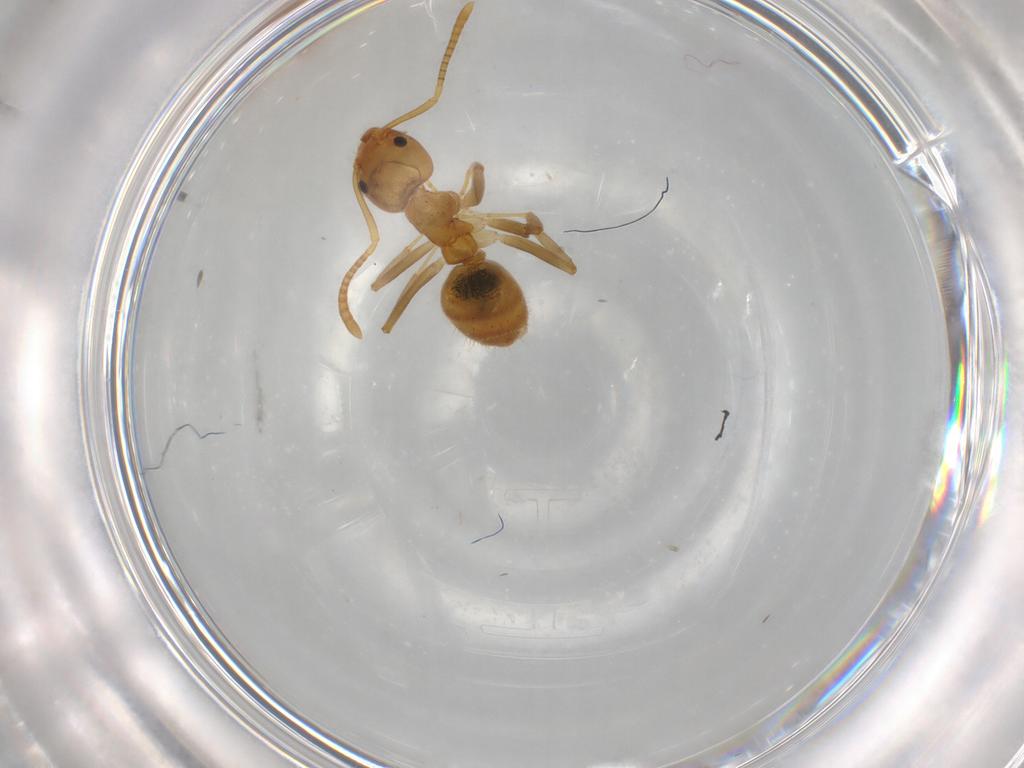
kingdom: Animalia
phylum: Arthropoda
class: Insecta
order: Hymenoptera
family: Formicidae
